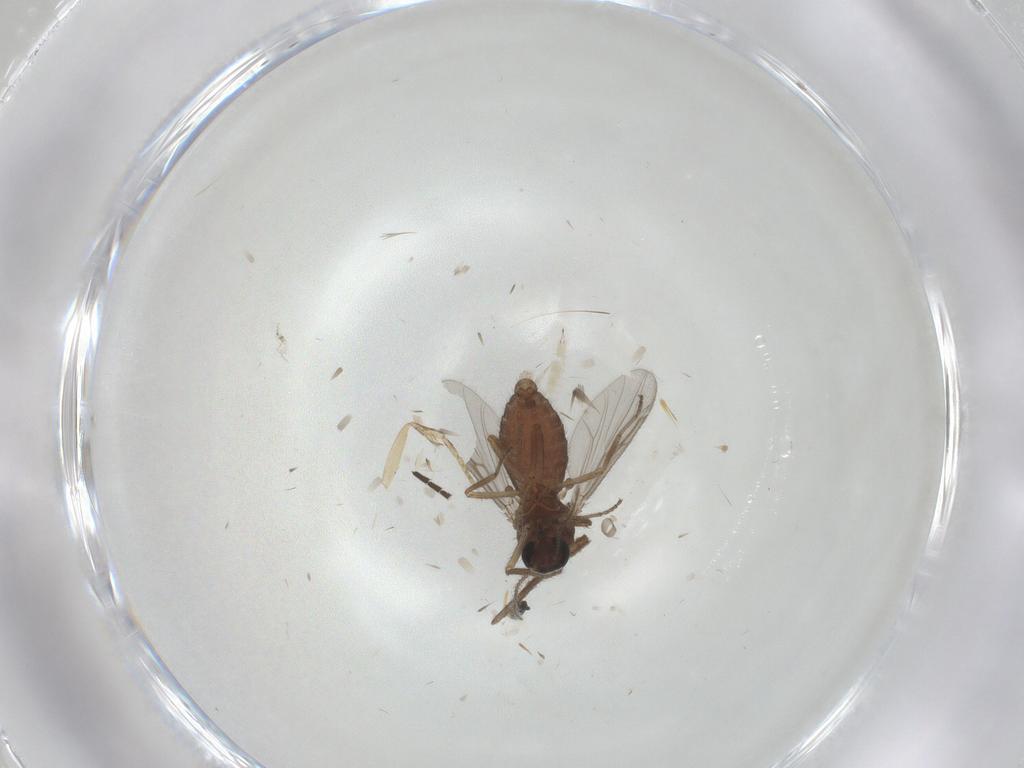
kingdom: Animalia
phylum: Arthropoda
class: Insecta
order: Diptera
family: Ceratopogonidae
